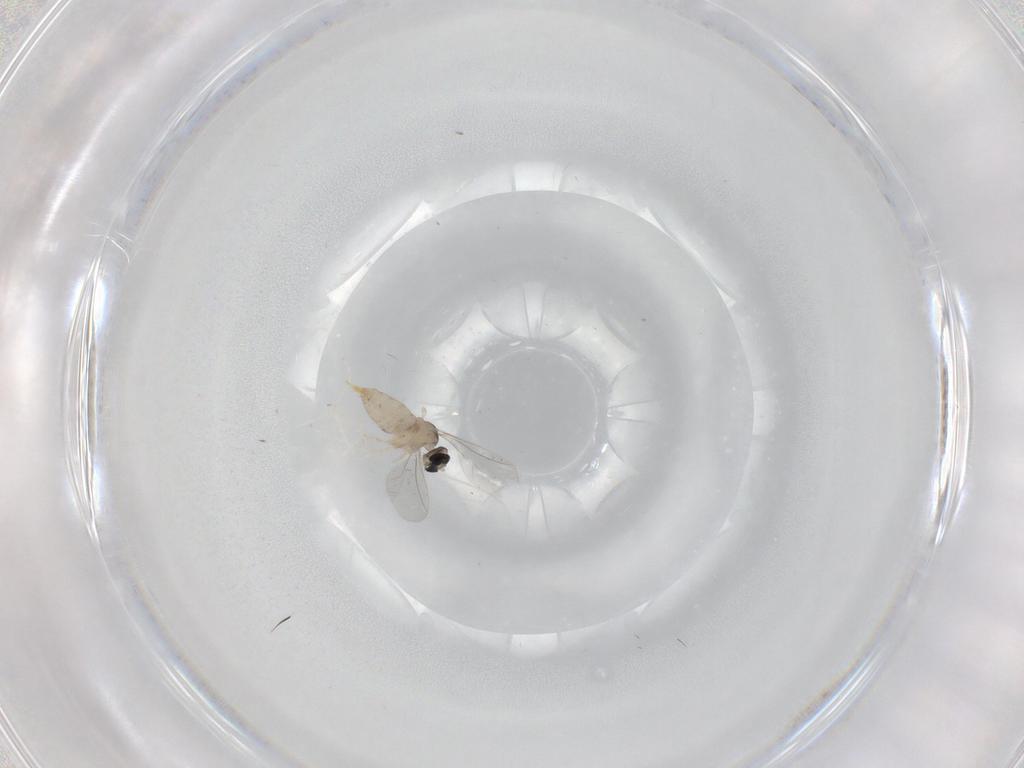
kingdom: Animalia
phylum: Arthropoda
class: Insecta
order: Diptera
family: Cecidomyiidae
